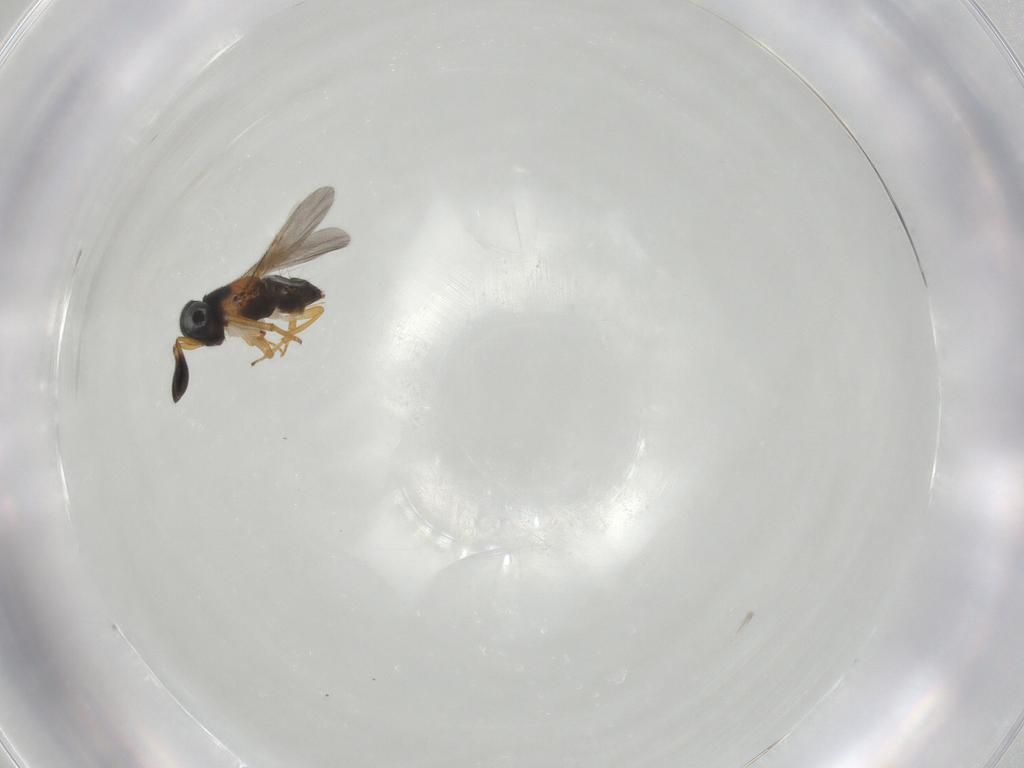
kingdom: Animalia
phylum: Arthropoda
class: Insecta
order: Hymenoptera
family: Encyrtidae
